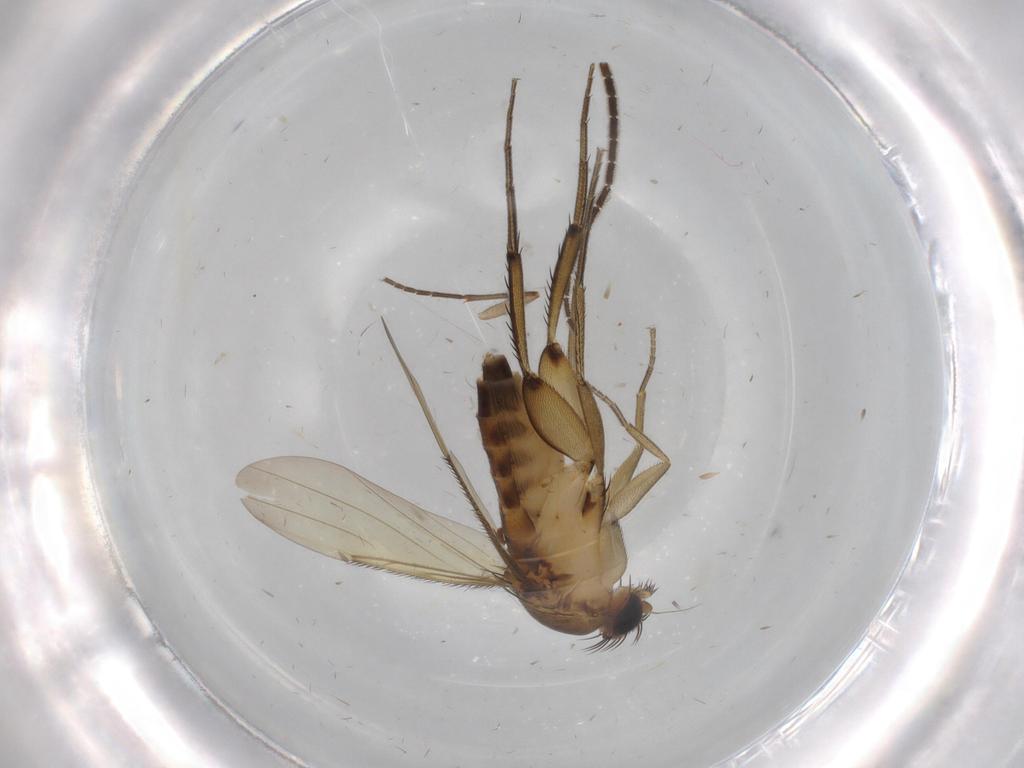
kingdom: Animalia
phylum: Arthropoda
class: Insecta
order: Diptera
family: Phoridae
